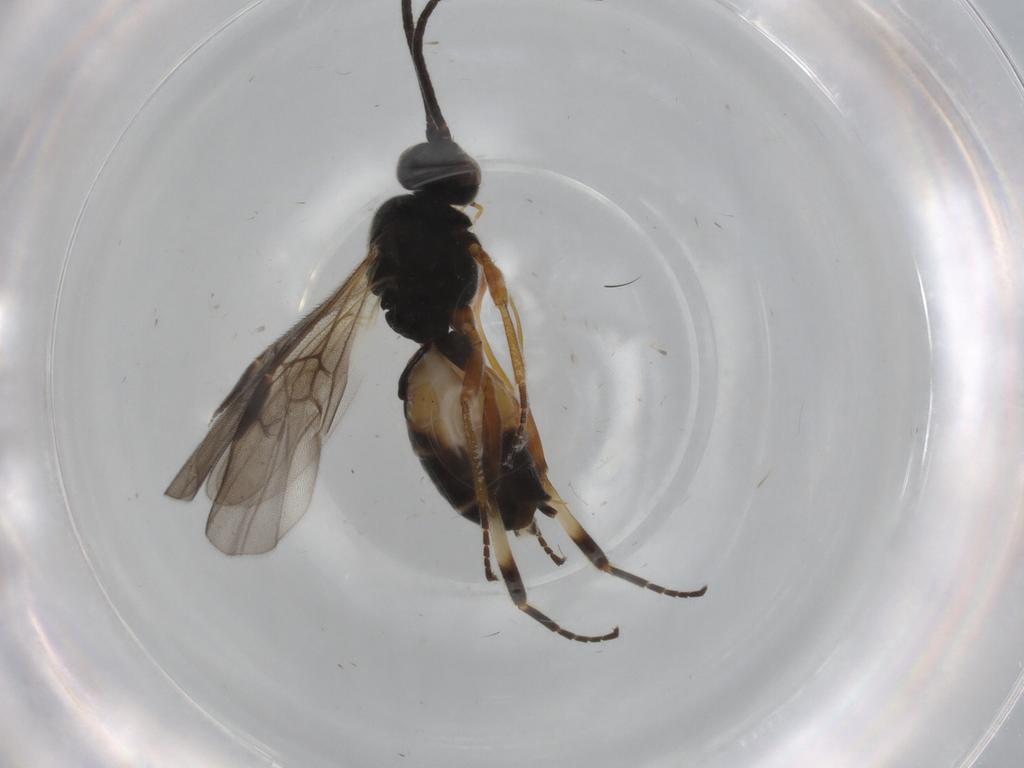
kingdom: Animalia
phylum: Arthropoda
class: Insecta
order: Hymenoptera
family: Braconidae
